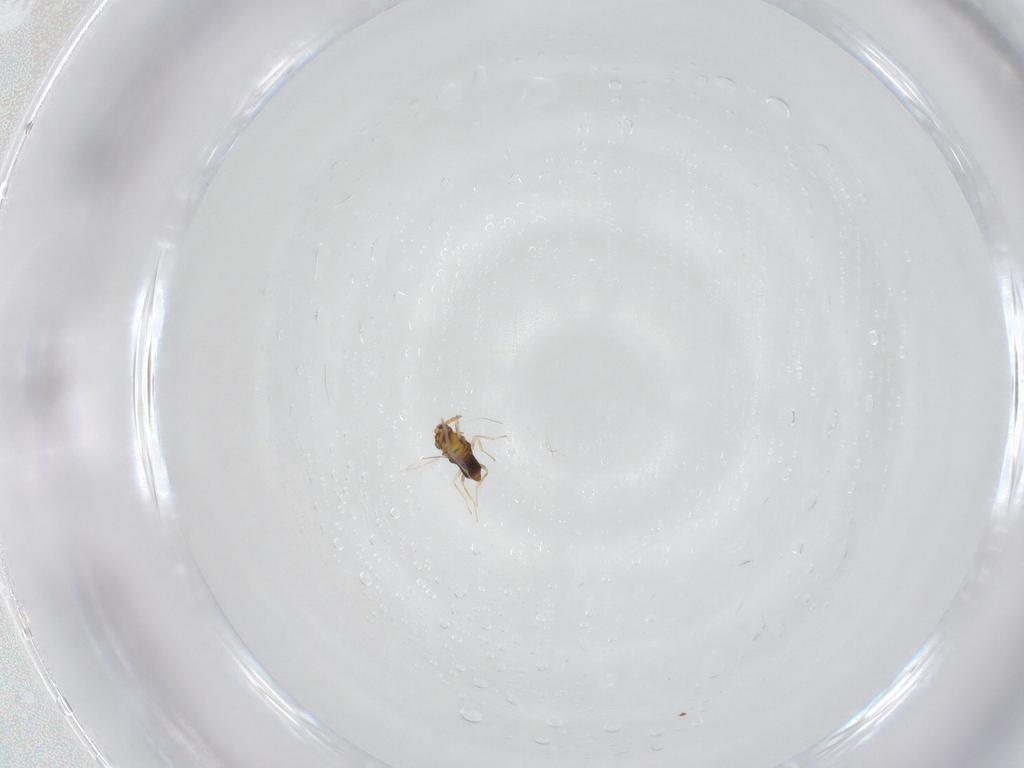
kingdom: Animalia
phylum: Arthropoda
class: Insecta
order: Hymenoptera
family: Aphelinidae
